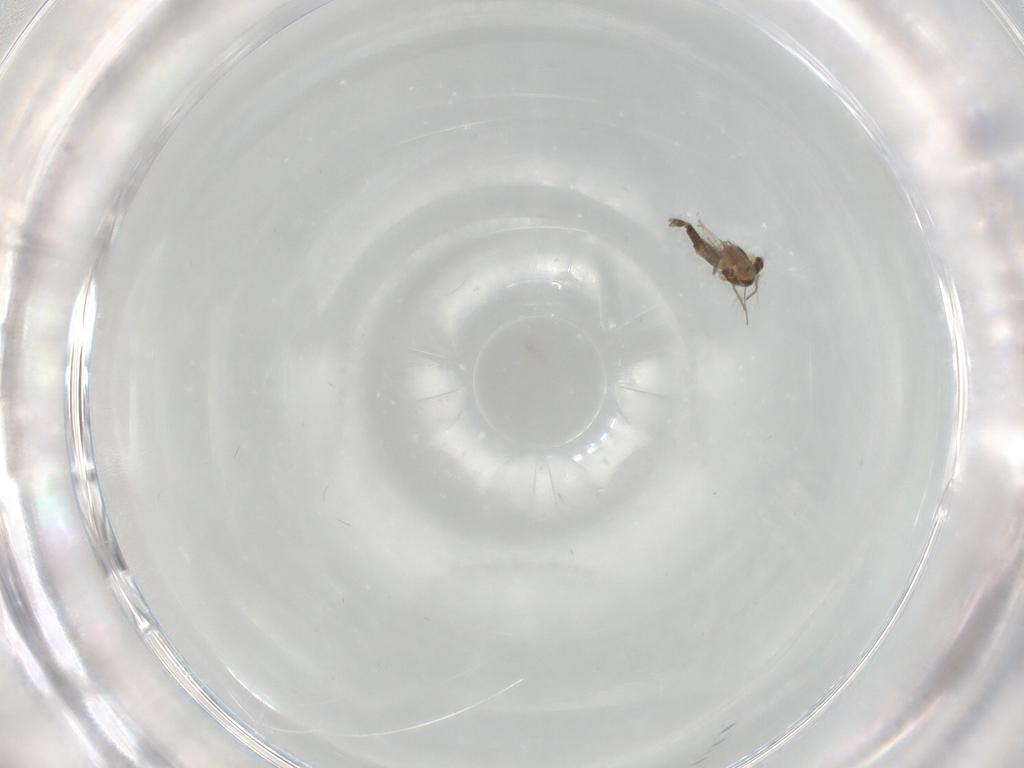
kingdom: Animalia
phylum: Arthropoda
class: Insecta
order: Diptera
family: Chironomidae
